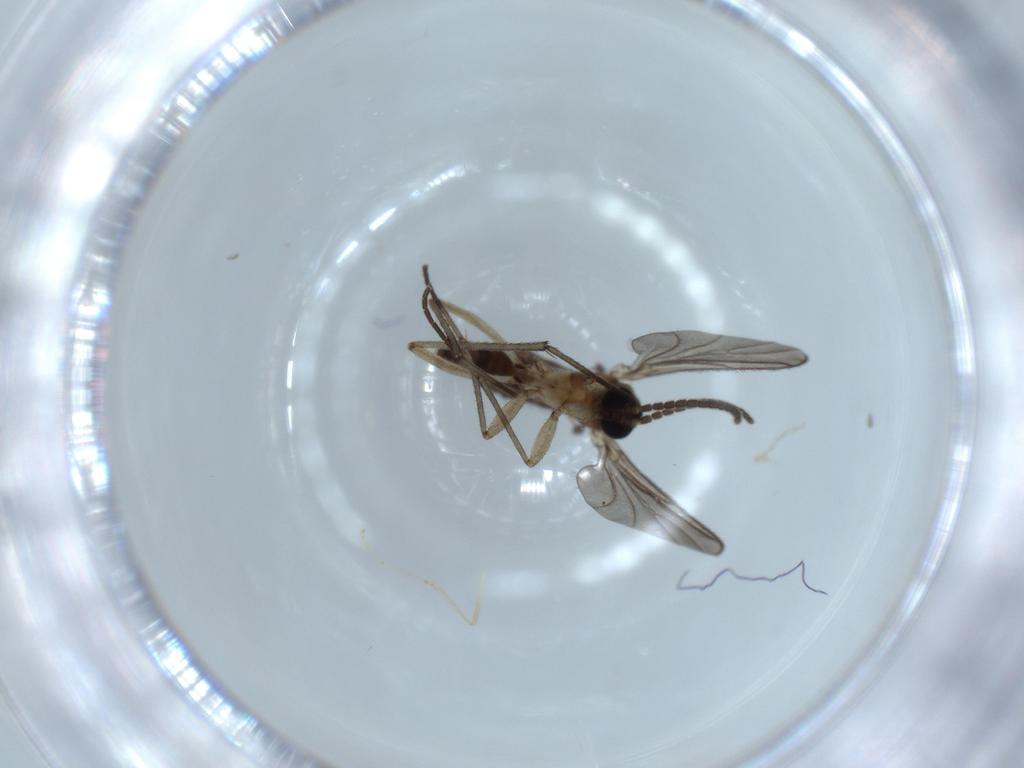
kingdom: Animalia
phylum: Arthropoda
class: Insecta
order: Diptera
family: Sciaridae
